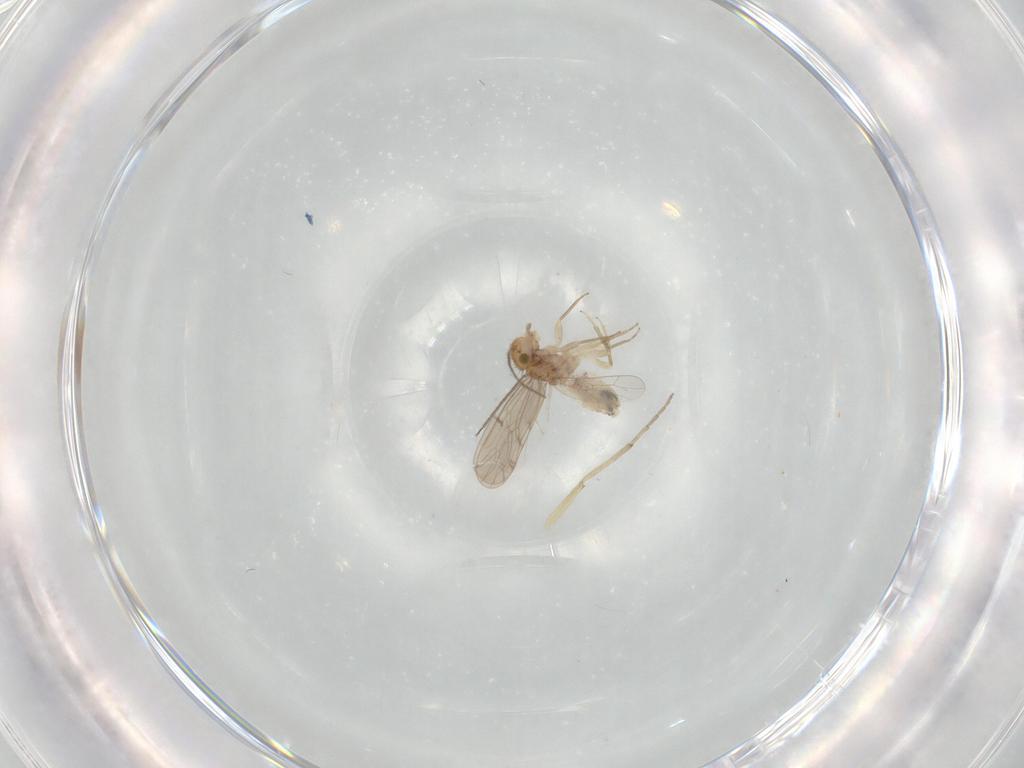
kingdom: Animalia
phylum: Arthropoda
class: Insecta
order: Psocodea
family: Ectopsocidae
